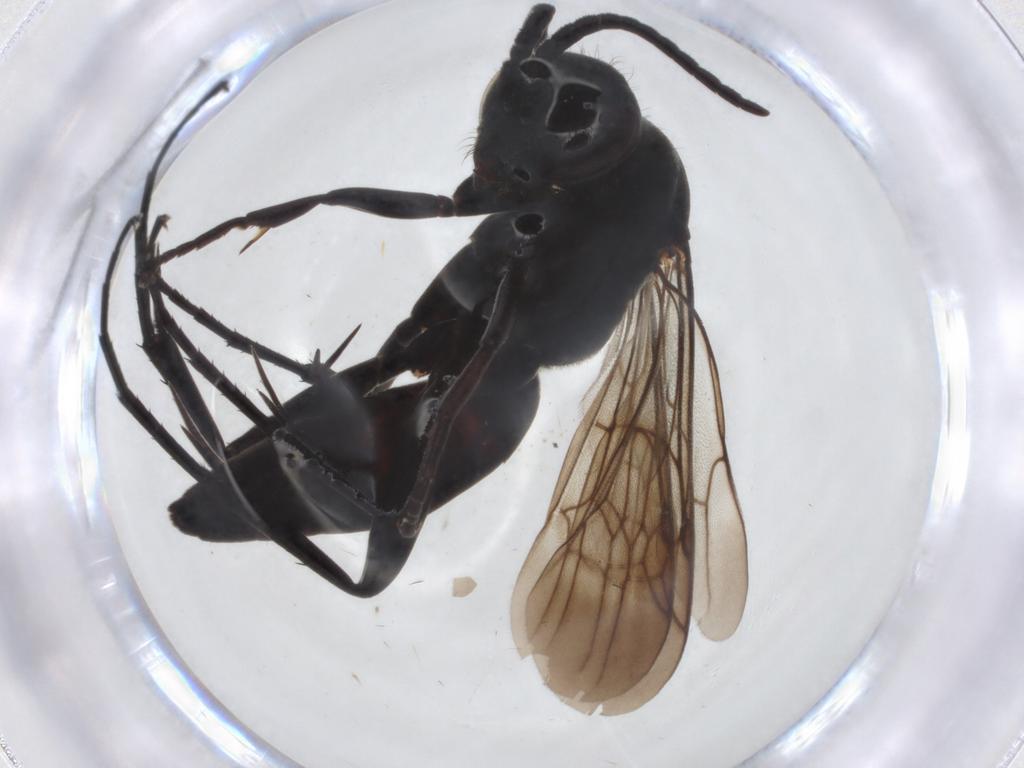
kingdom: Animalia
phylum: Arthropoda
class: Insecta
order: Hymenoptera
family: Pompilidae
